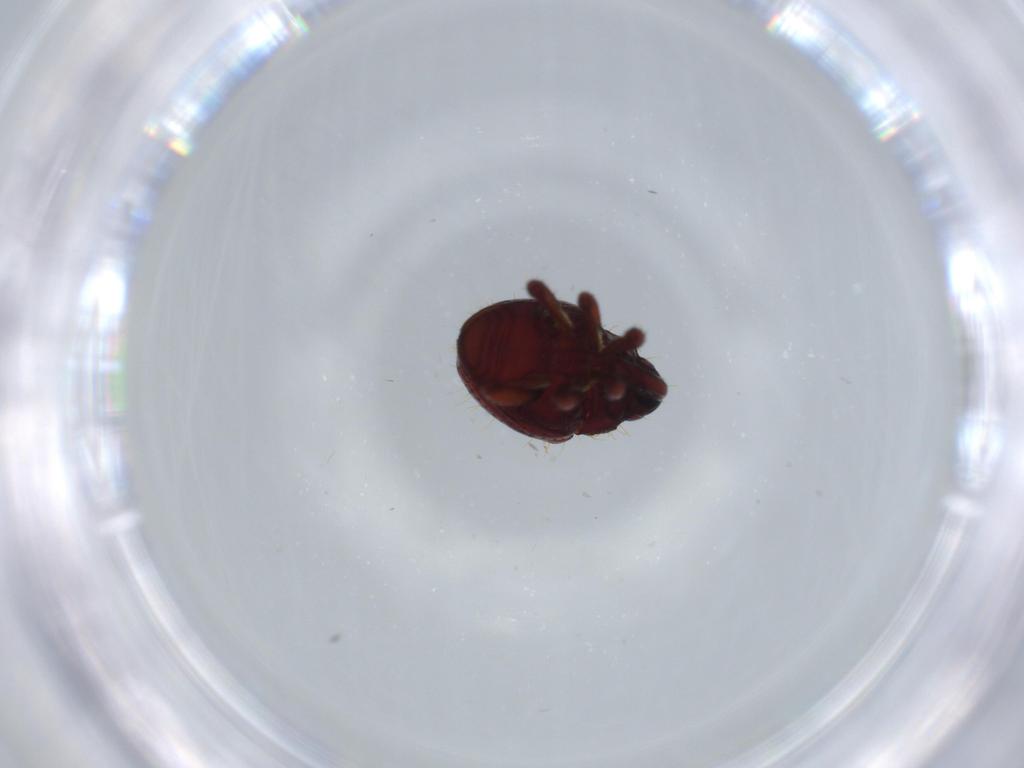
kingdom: Animalia
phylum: Arthropoda
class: Insecta
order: Coleoptera
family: Curculionidae
